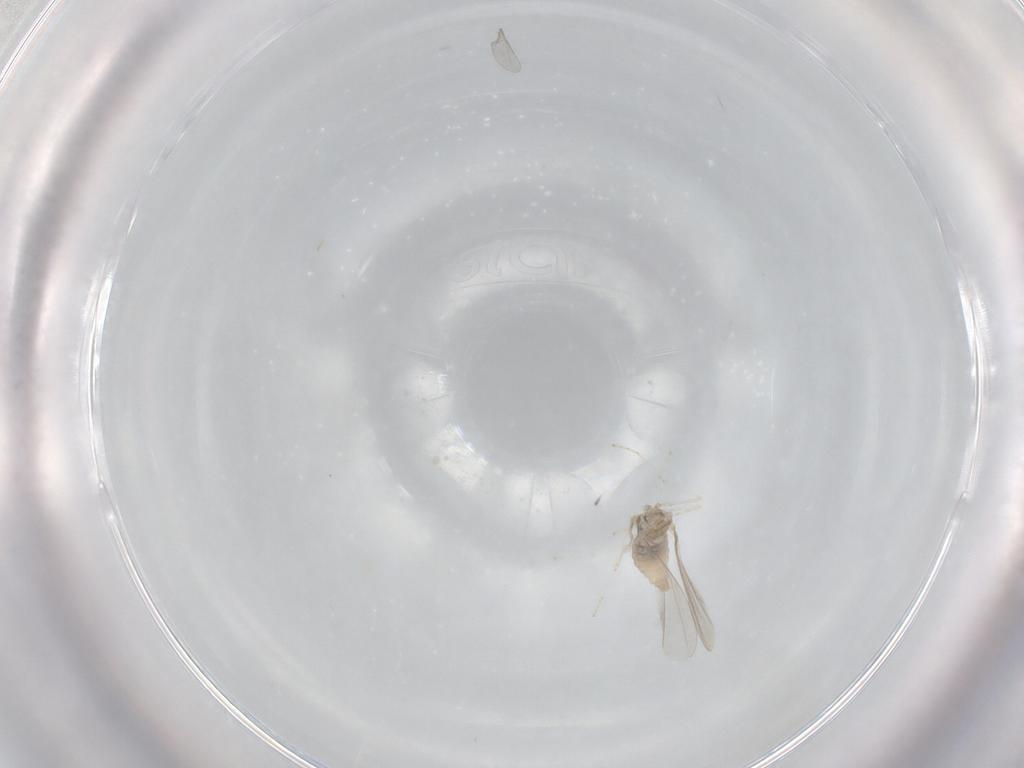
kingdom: Animalia
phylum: Arthropoda
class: Insecta
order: Diptera
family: Cecidomyiidae
